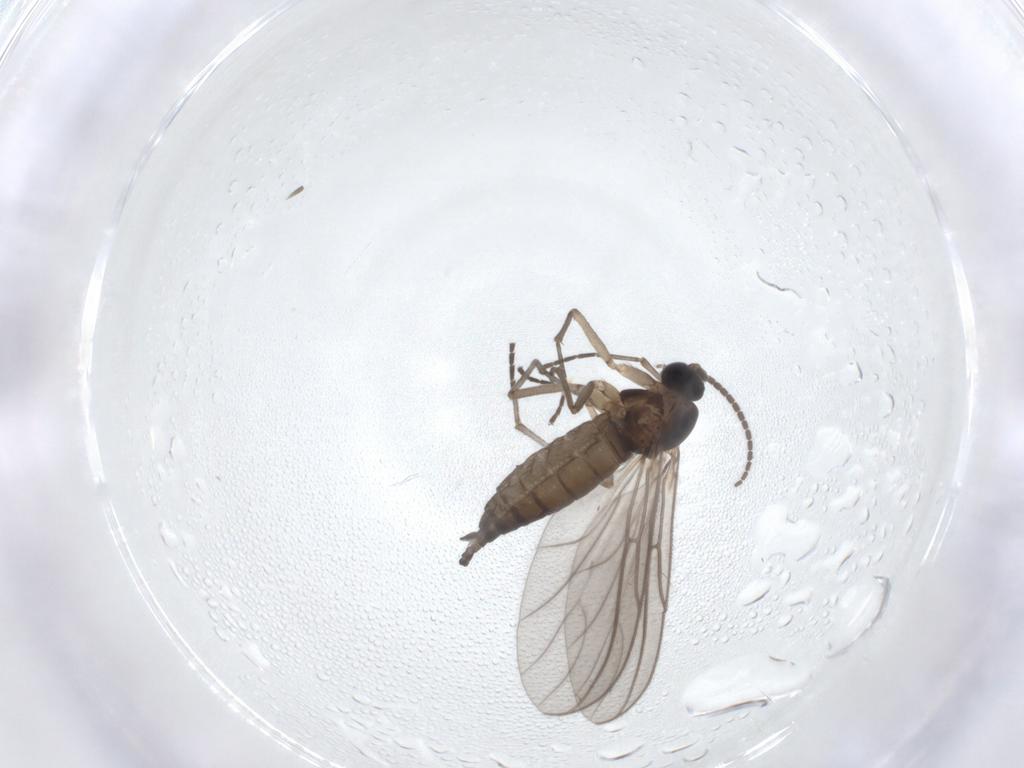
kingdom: Animalia
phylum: Arthropoda
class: Insecta
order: Diptera
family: Sciaridae
